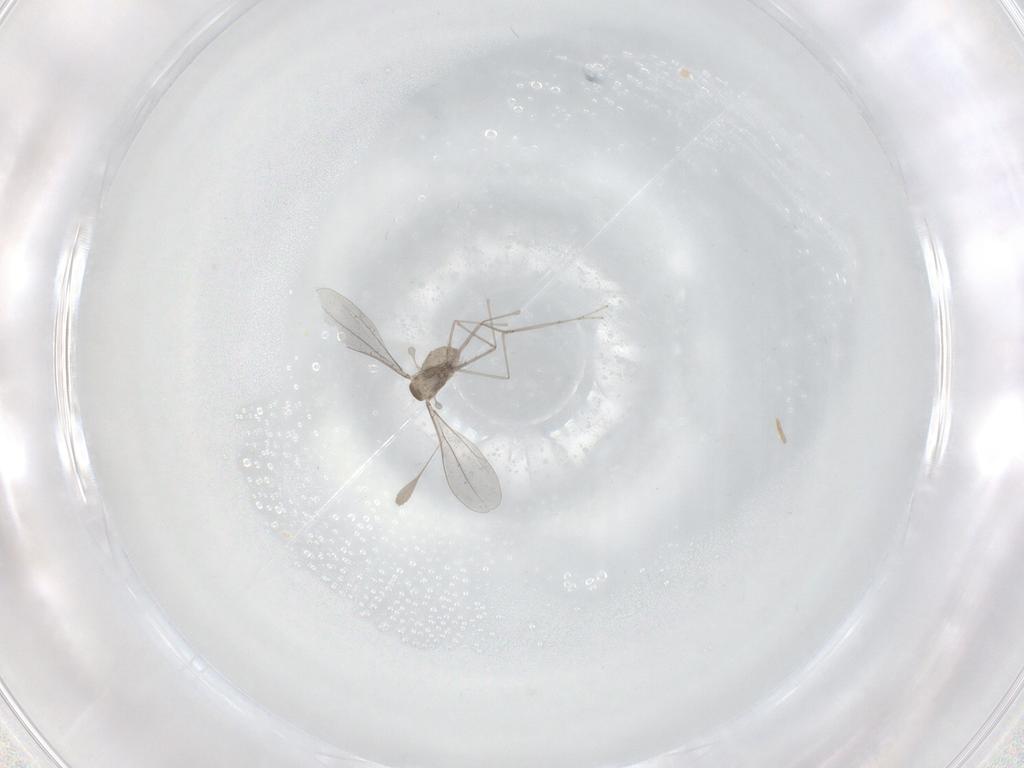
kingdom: Animalia
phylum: Arthropoda
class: Insecta
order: Diptera
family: Cecidomyiidae
